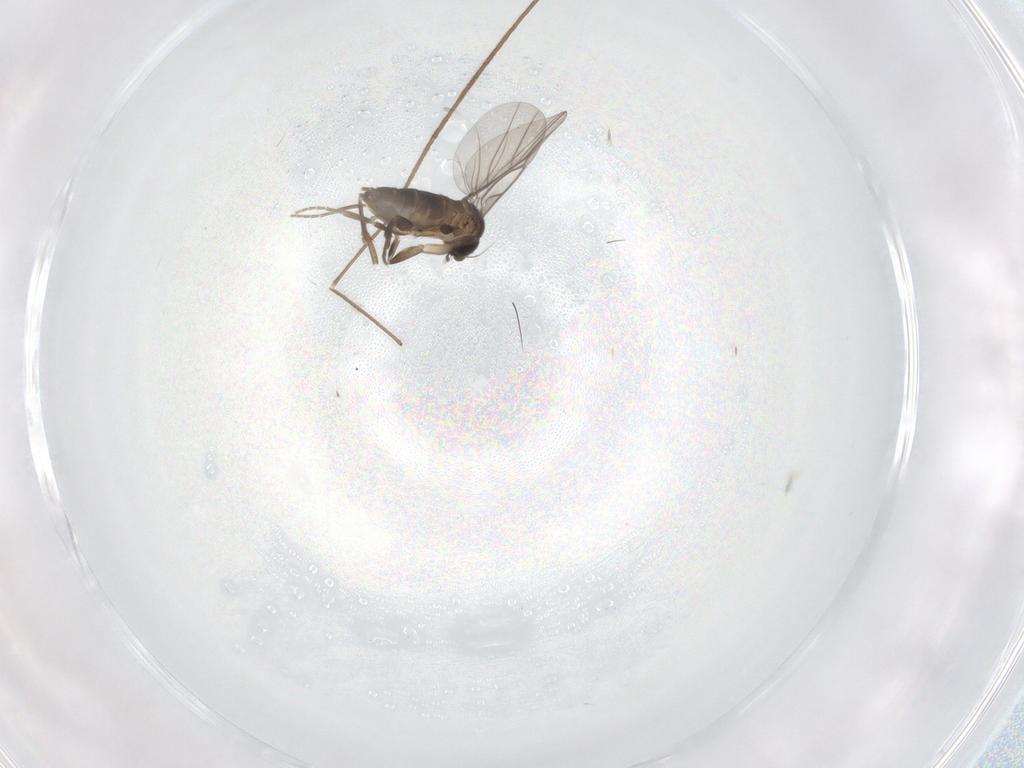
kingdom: Animalia
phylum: Arthropoda
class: Insecta
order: Diptera
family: Chironomidae
